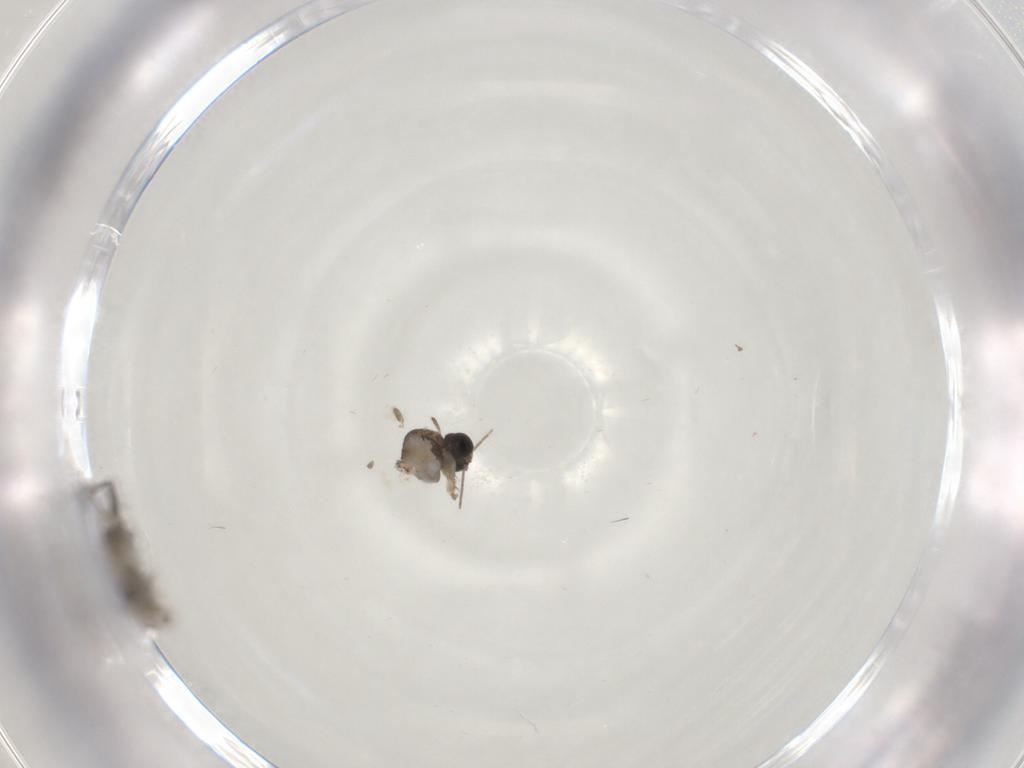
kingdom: Animalia
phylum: Arthropoda
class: Insecta
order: Diptera
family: Sciaridae
